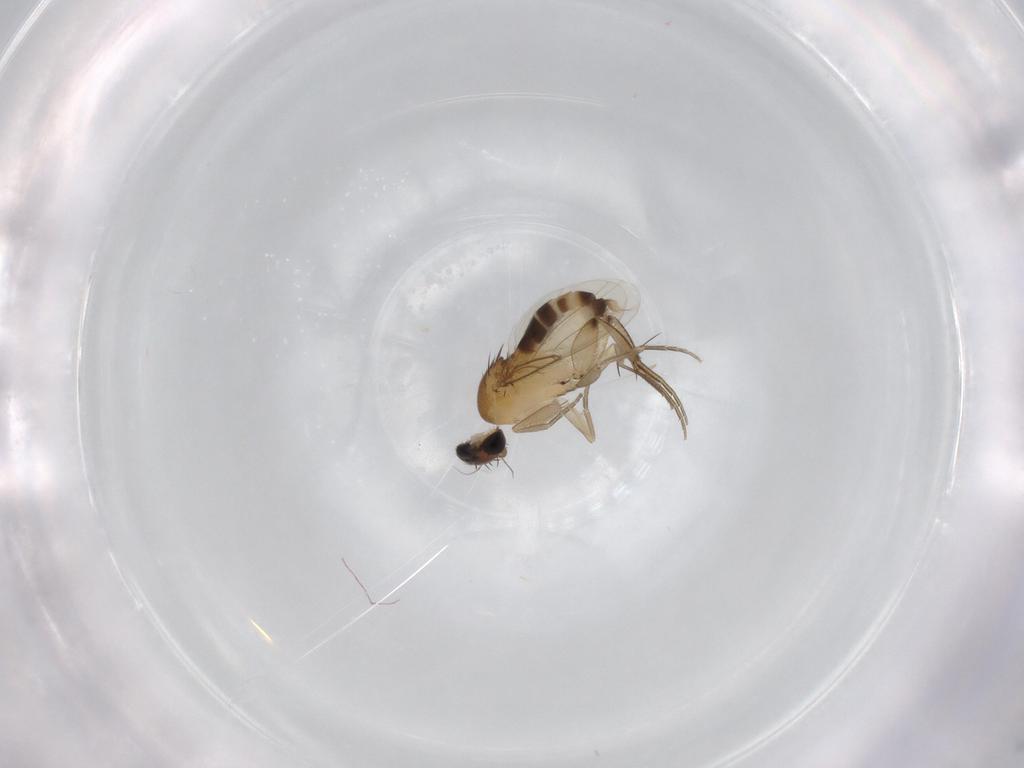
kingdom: Animalia
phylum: Arthropoda
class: Insecta
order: Diptera
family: Phoridae
